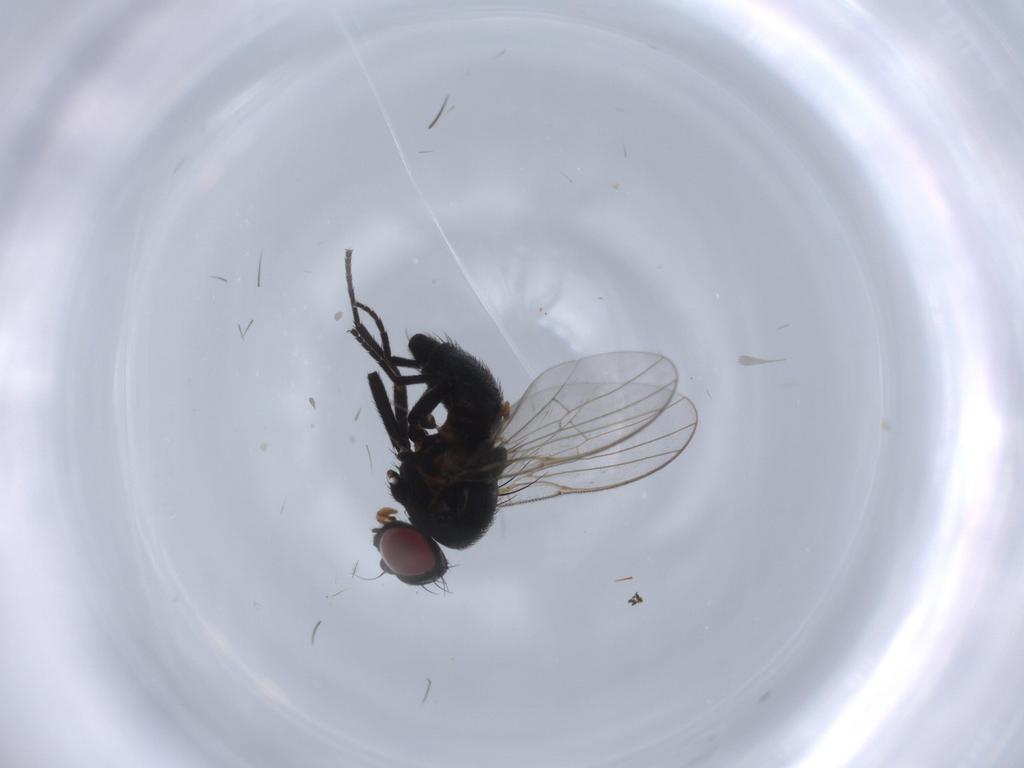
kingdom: Animalia
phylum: Arthropoda
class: Insecta
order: Diptera
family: Agromyzidae
